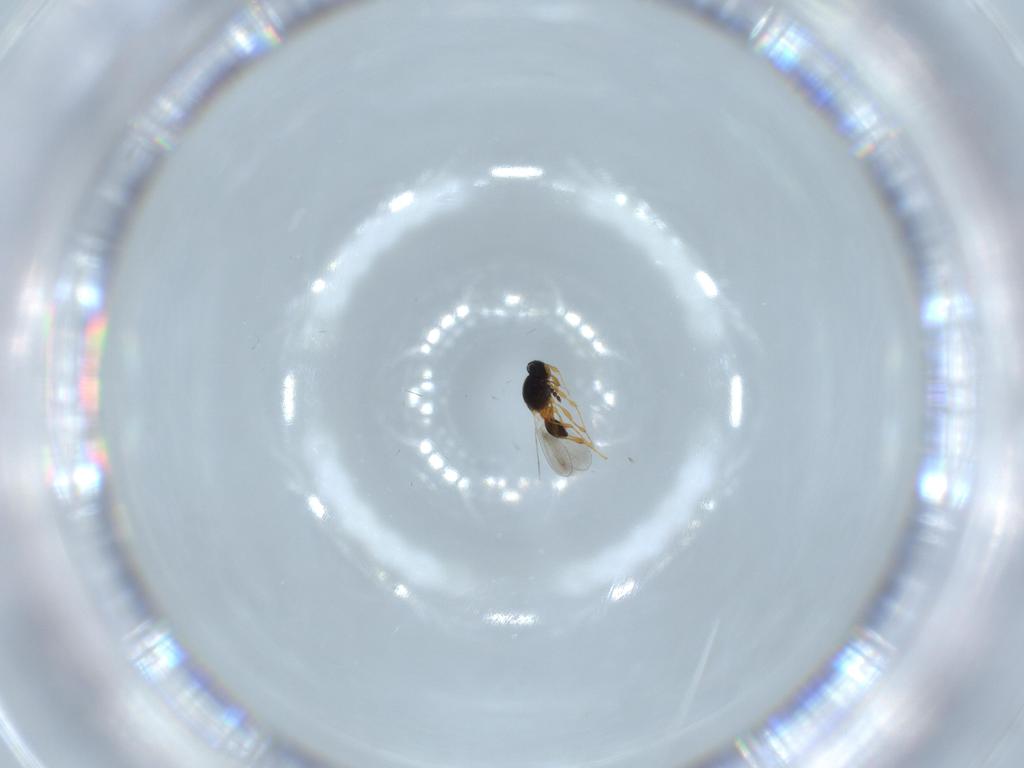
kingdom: Animalia
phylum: Arthropoda
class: Insecta
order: Hymenoptera
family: Platygastridae
